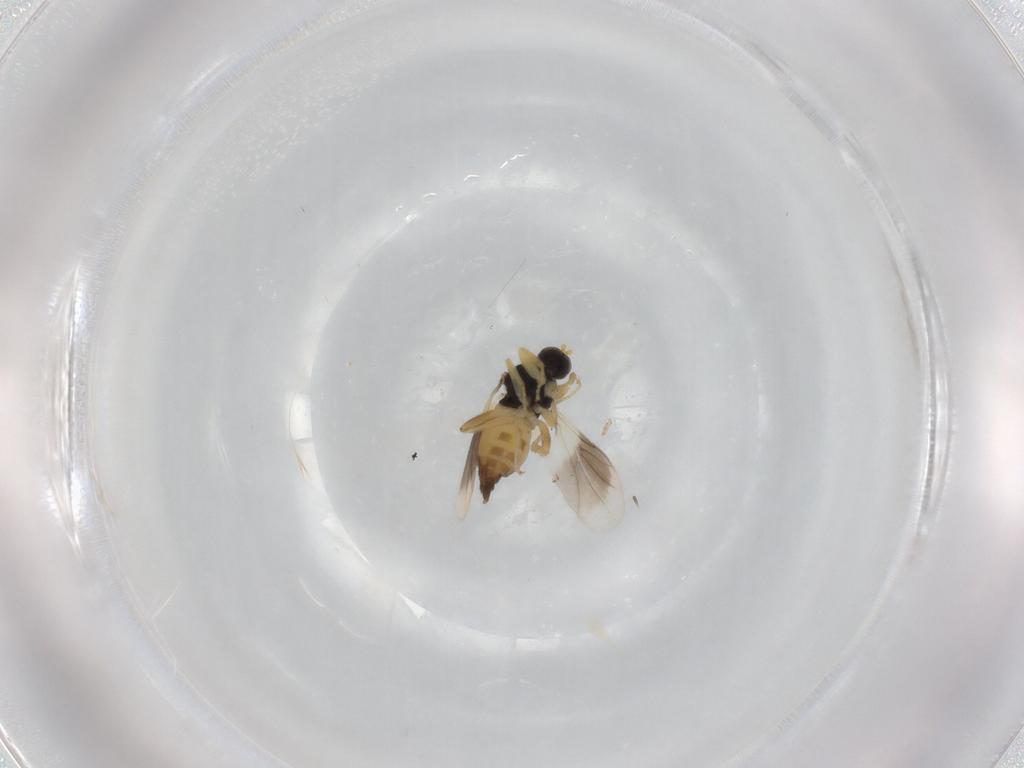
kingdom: Animalia
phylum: Arthropoda
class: Insecta
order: Diptera
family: Hybotidae
